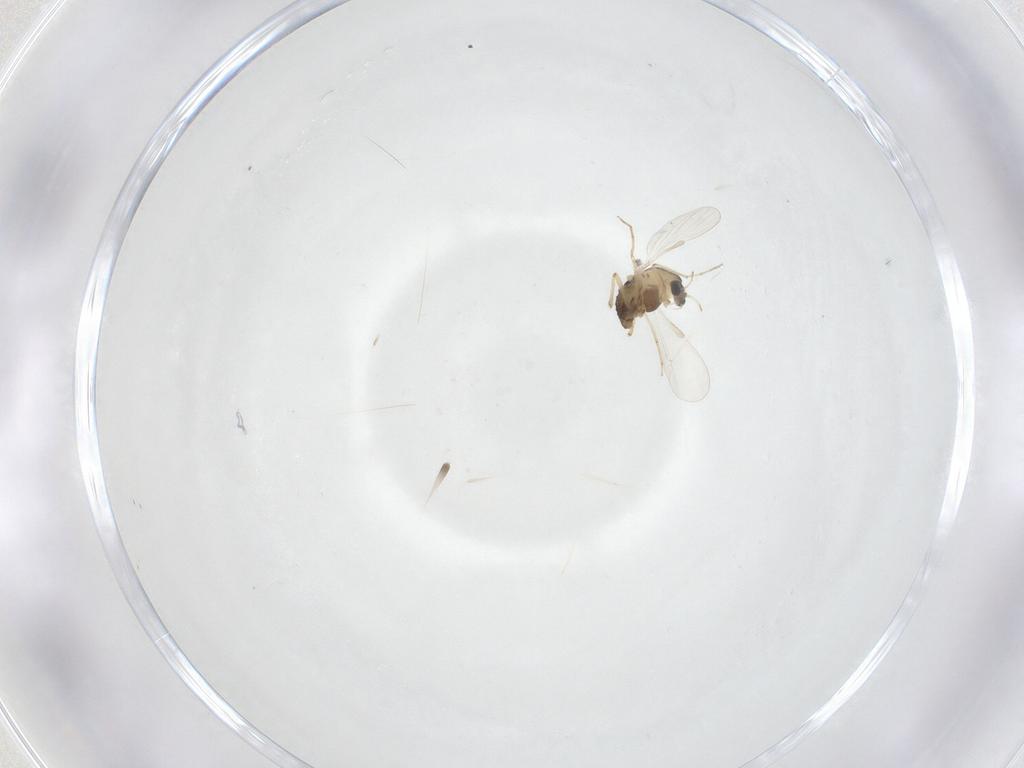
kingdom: Animalia
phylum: Arthropoda
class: Insecta
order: Diptera
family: Chironomidae
